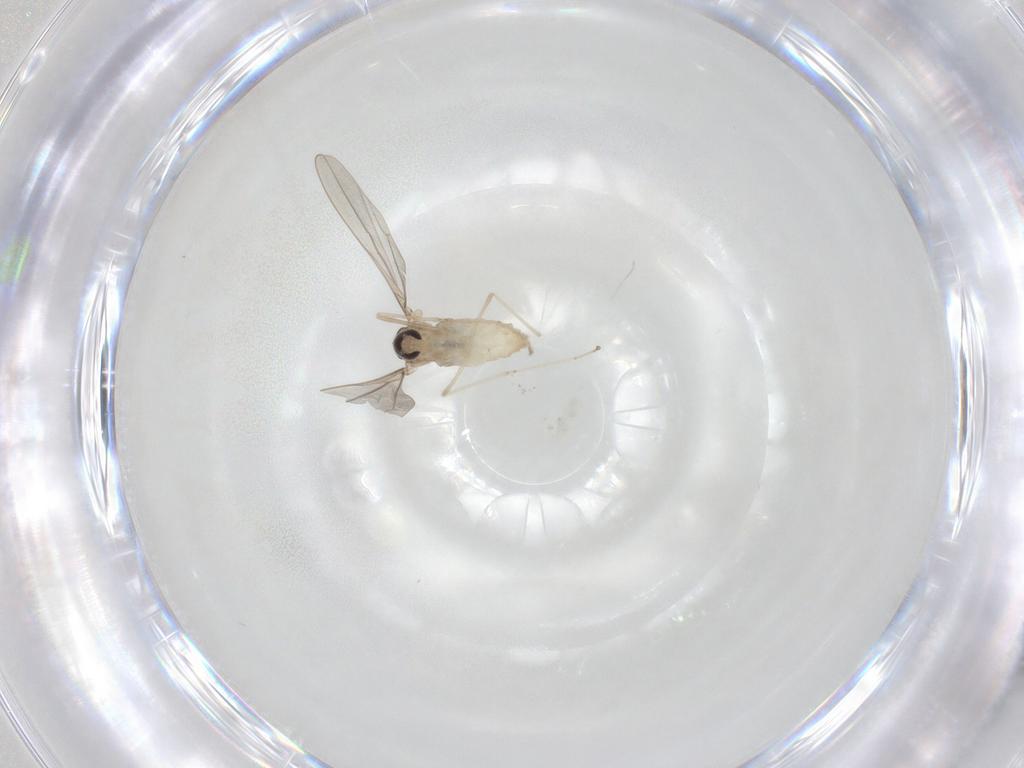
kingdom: Animalia
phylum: Arthropoda
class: Insecta
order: Diptera
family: Cecidomyiidae
